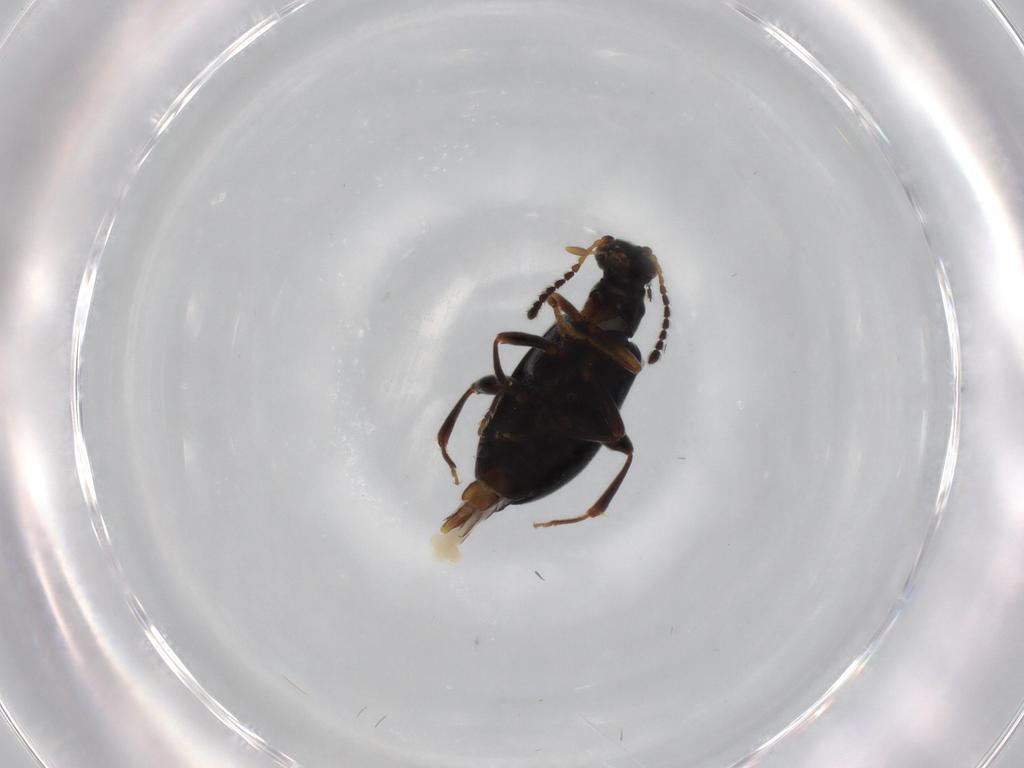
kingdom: Animalia
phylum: Arthropoda
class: Insecta
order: Coleoptera
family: Aderidae
